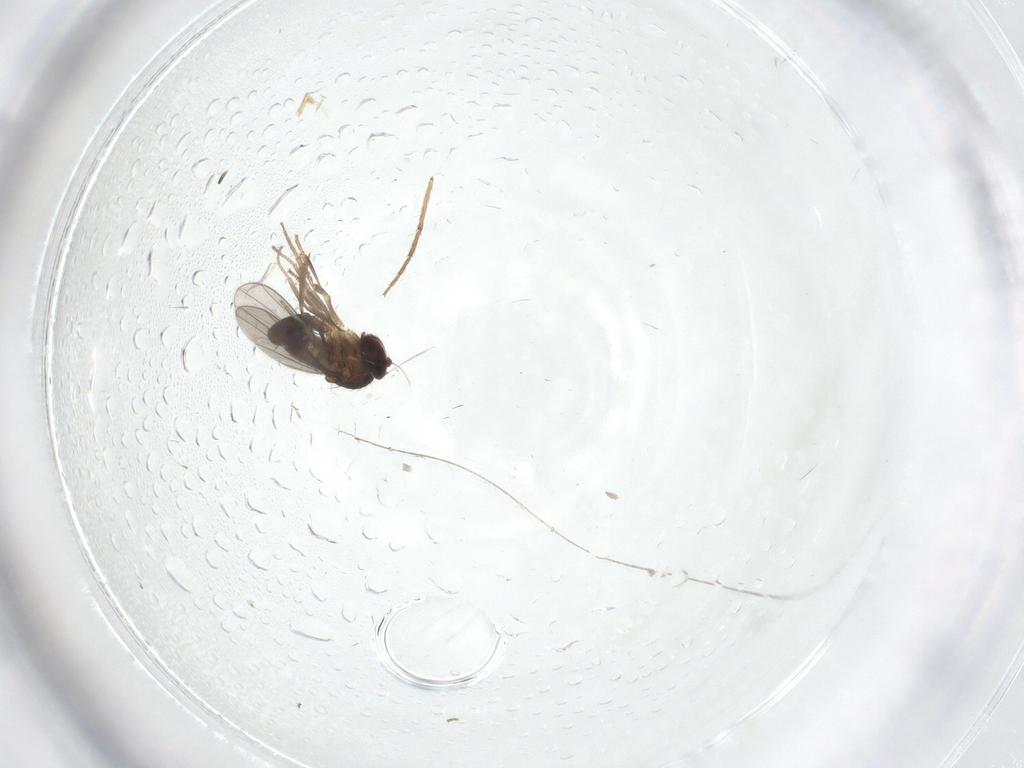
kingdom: Animalia
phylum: Arthropoda
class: Insecta
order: Diptera
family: Chironomidae
